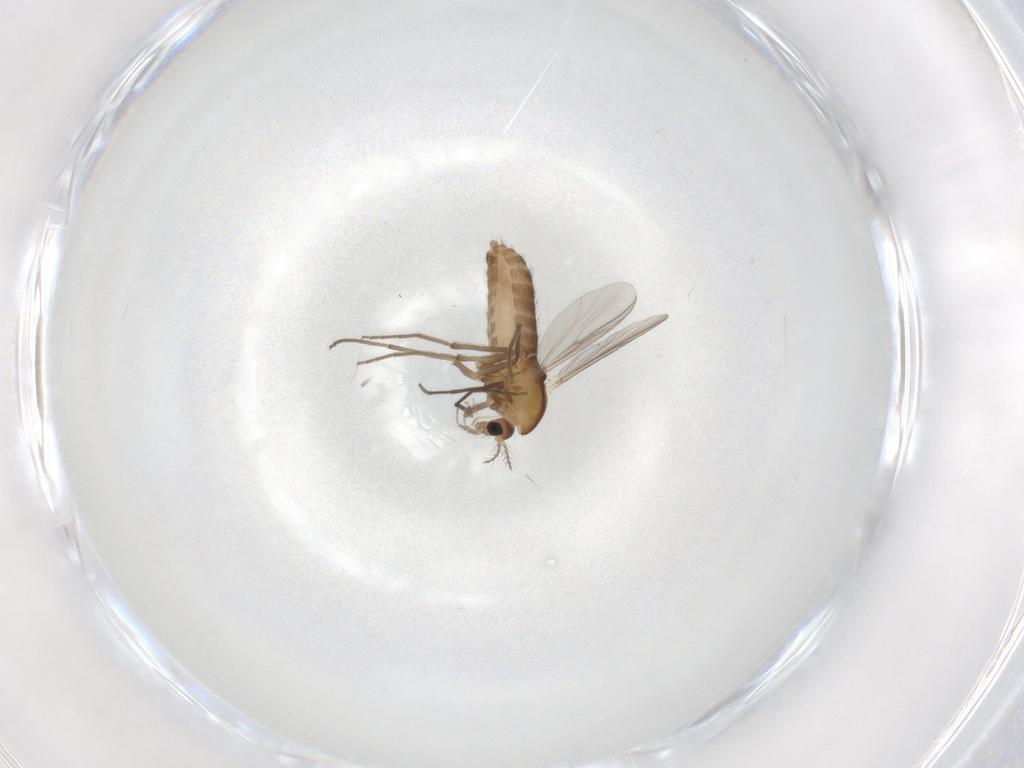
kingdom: Animalia
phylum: Arthropoda
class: Insecta
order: Diptera
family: Chironomidae
